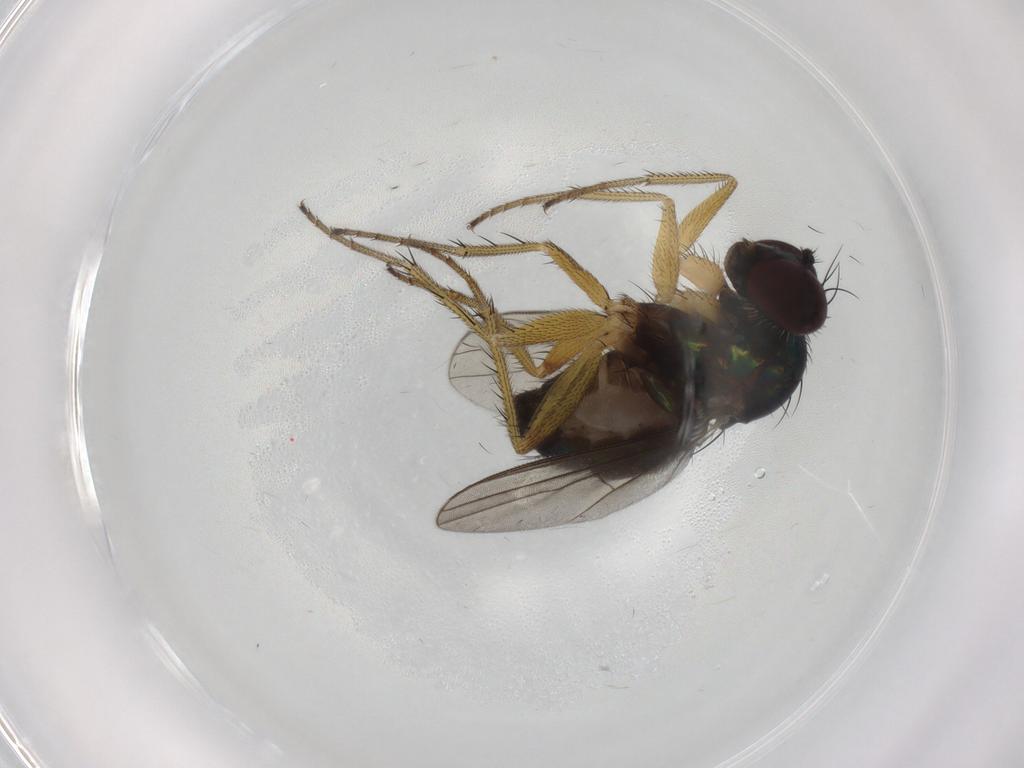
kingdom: Animalia
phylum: Arthropoda
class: Insecta
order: Diptera
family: Dolichopodidae
